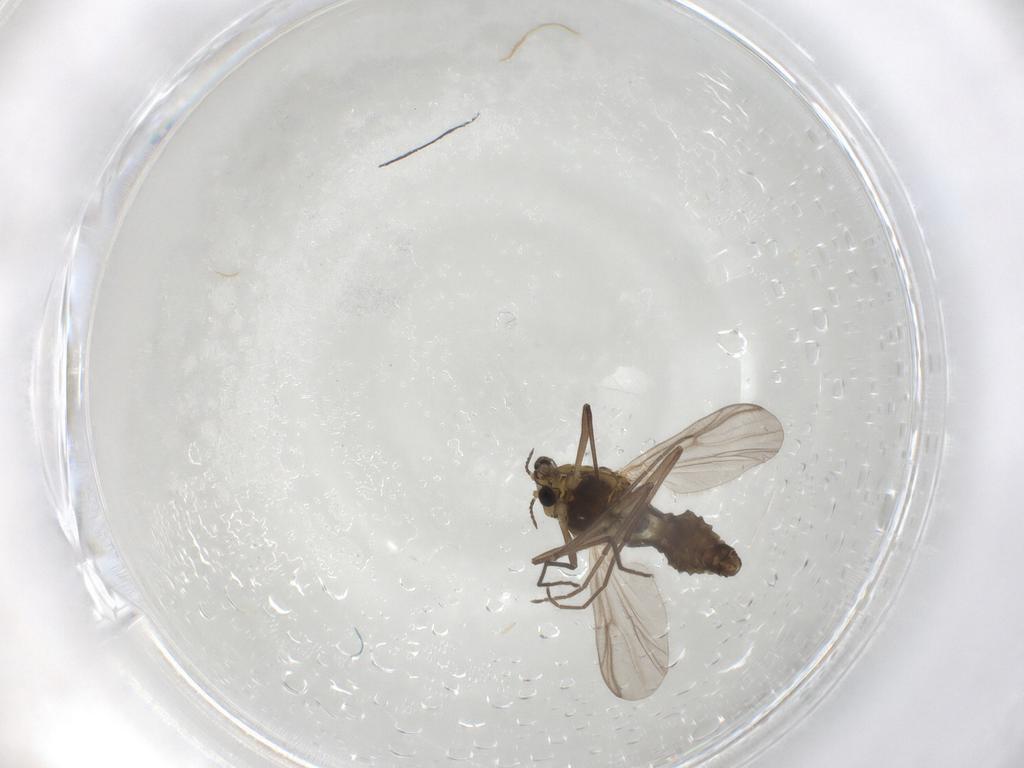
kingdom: Animalia
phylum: Arthropoda
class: Insecta
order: Diptera
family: Chironomidae
